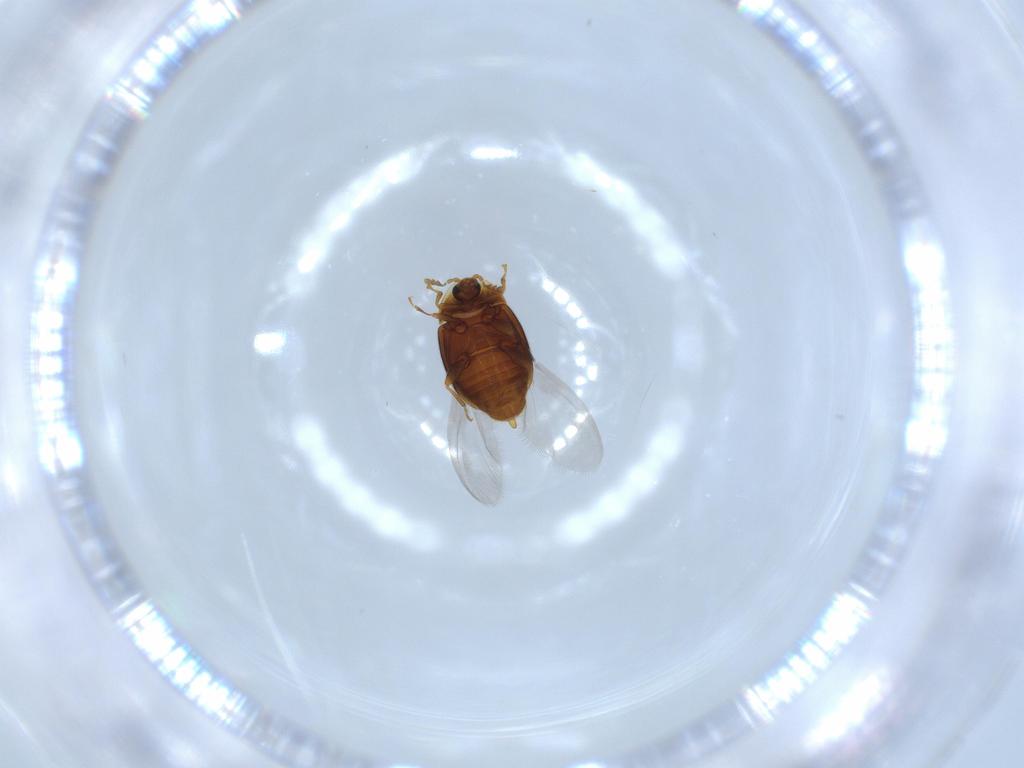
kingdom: Animalia
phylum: Arthropoda
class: Insecta
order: Coleoptera
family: Corylophidae
